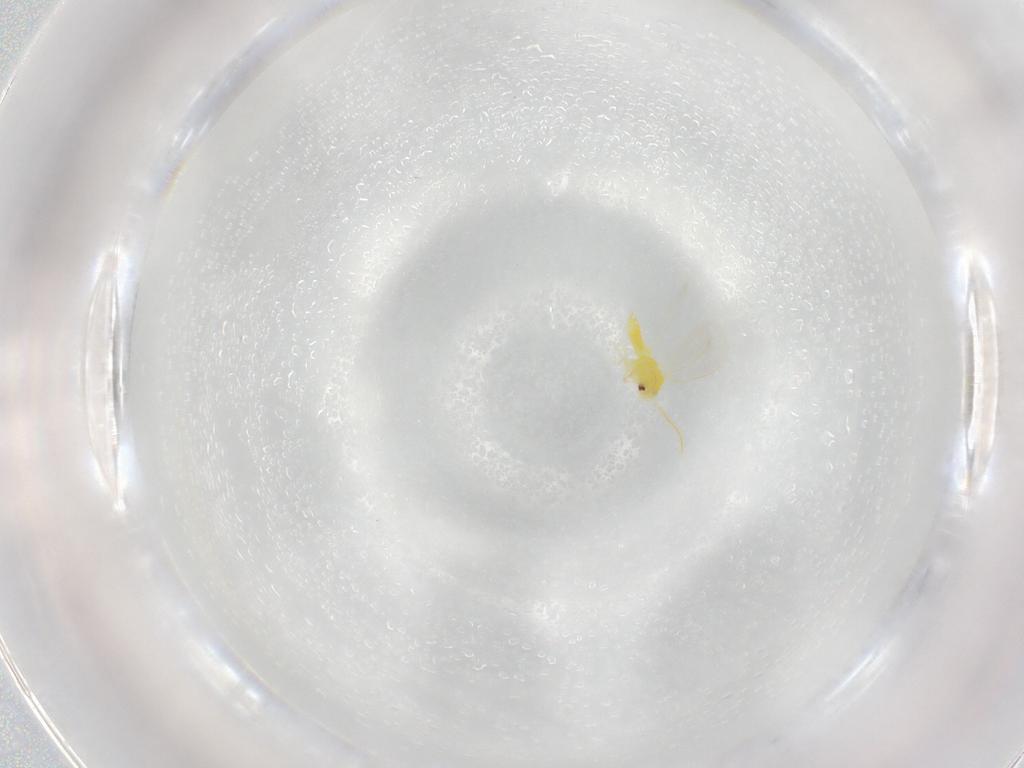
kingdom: Animalia
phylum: Arthropoda
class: Insecta
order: Hemiptera
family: Aleyrodidae
